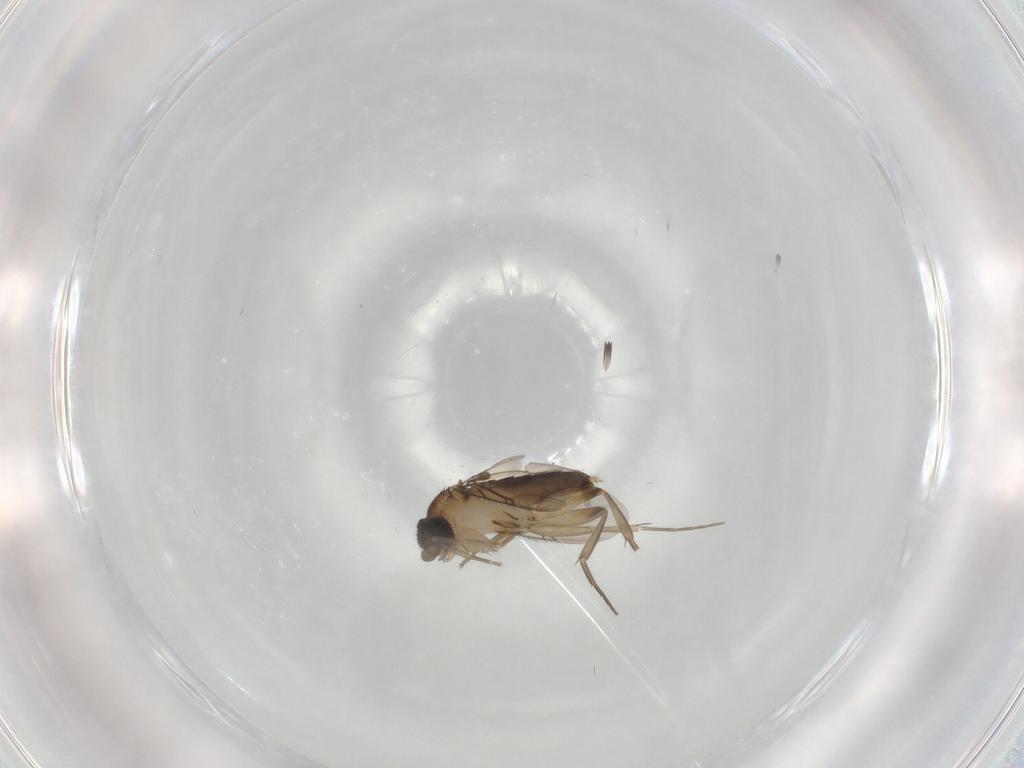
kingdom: Animalia
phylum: Arthropoda
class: Insecta
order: Diptera
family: Phoridae
